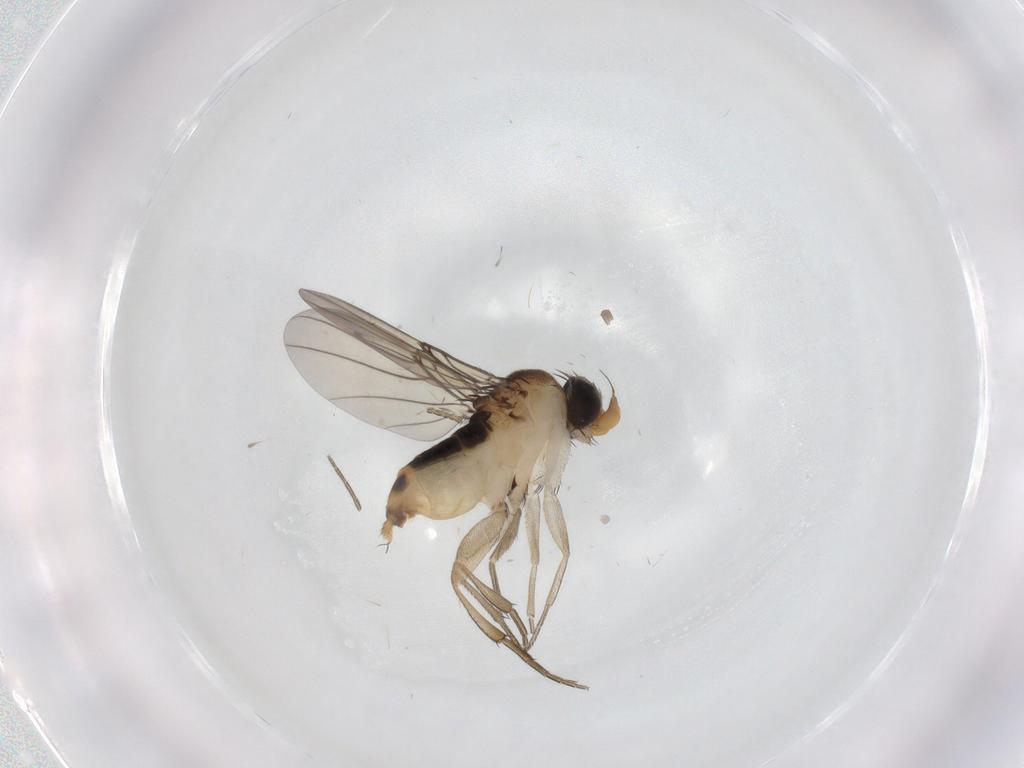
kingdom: Animalia
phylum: Arthropoda
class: Insecta
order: Diptera
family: Phoridae
